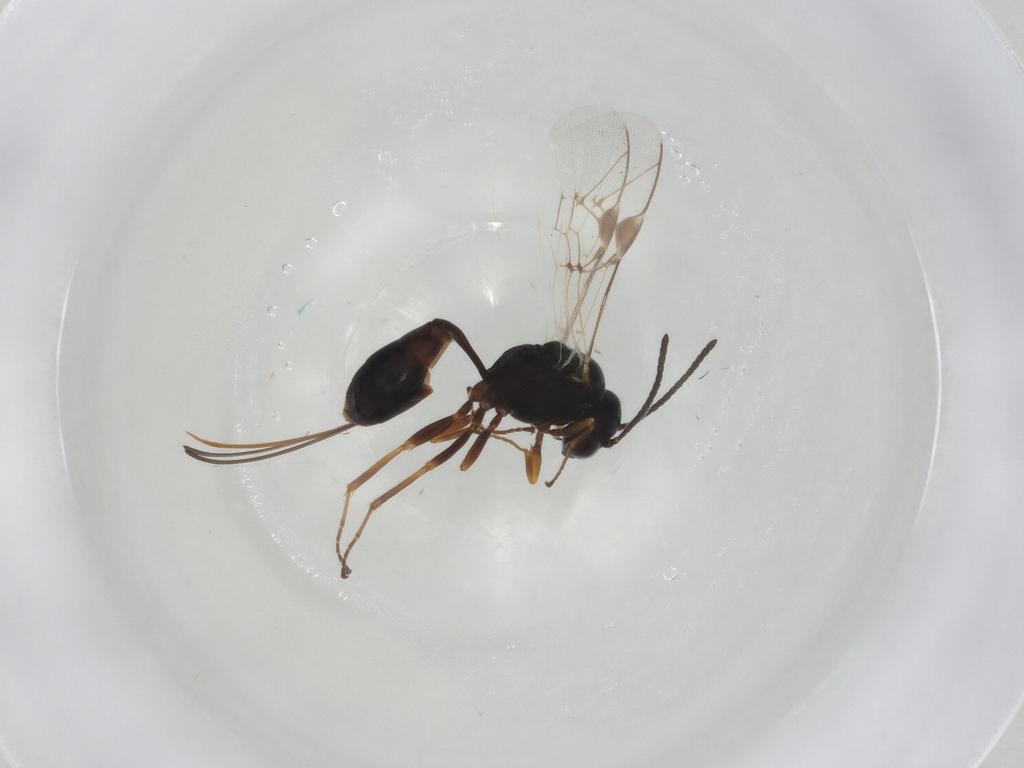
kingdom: Animalia
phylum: Arthropoda
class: Insecta
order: Hymenoptera
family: Ichneumonidae
